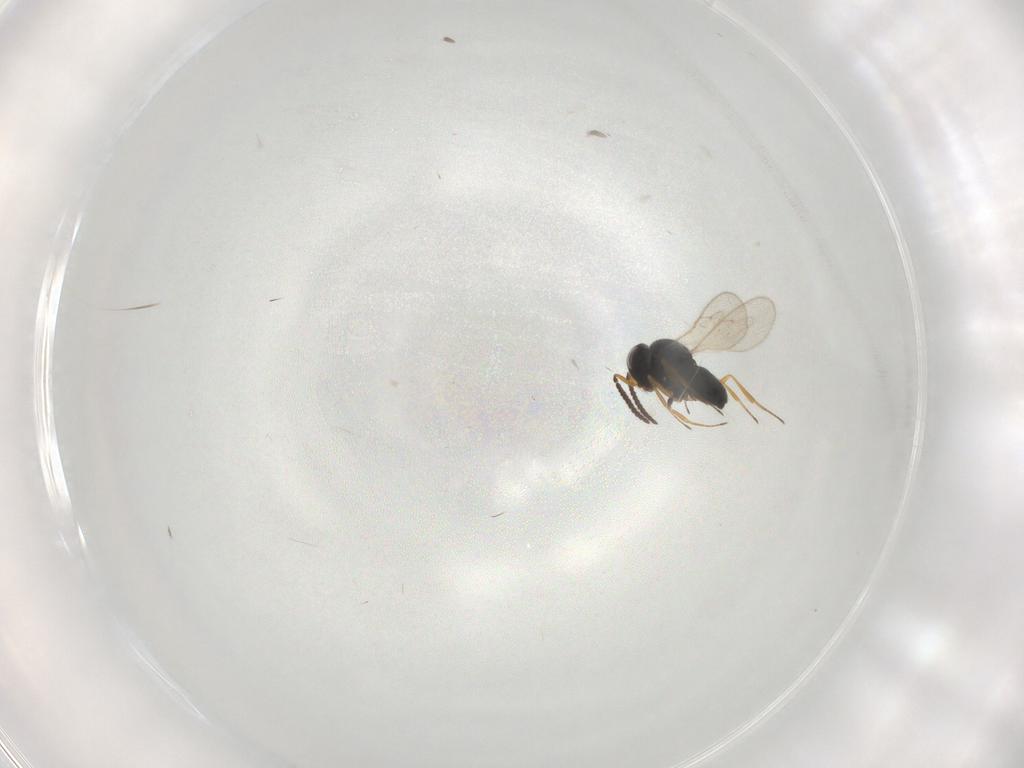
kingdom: Animalia
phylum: Arthropoda
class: Insecta
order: Hymenoptera
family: Scelionidae
